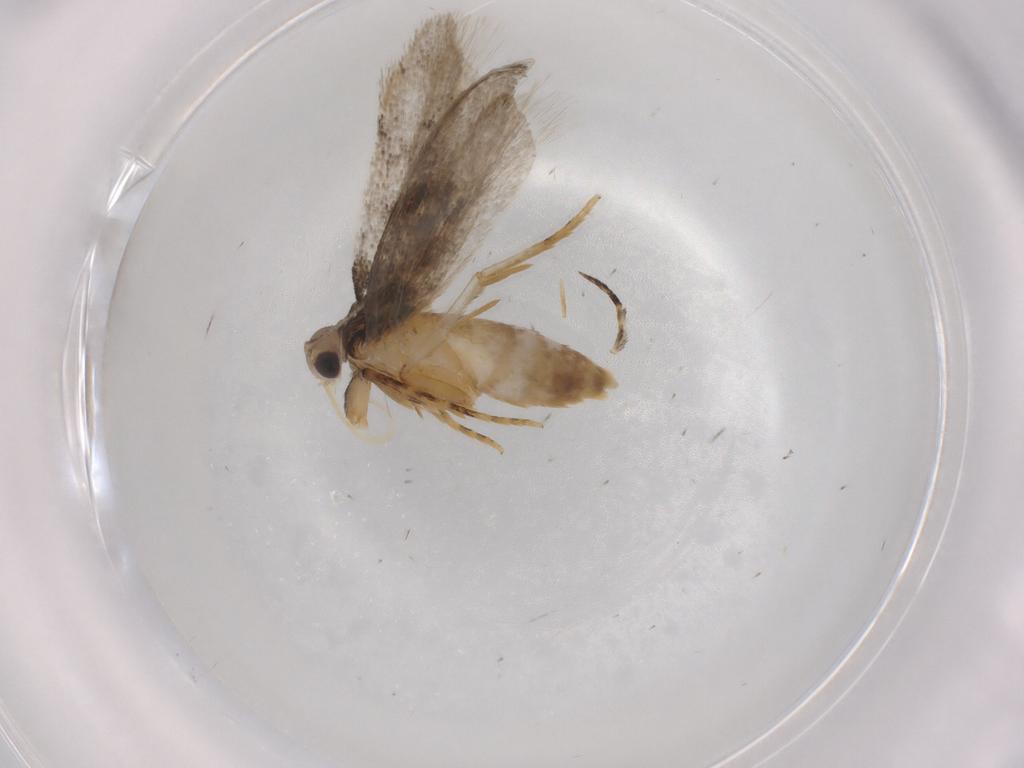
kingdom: Animalia
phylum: Arthropoda
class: Insecta
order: Lepidoptera
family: Autostichidae
